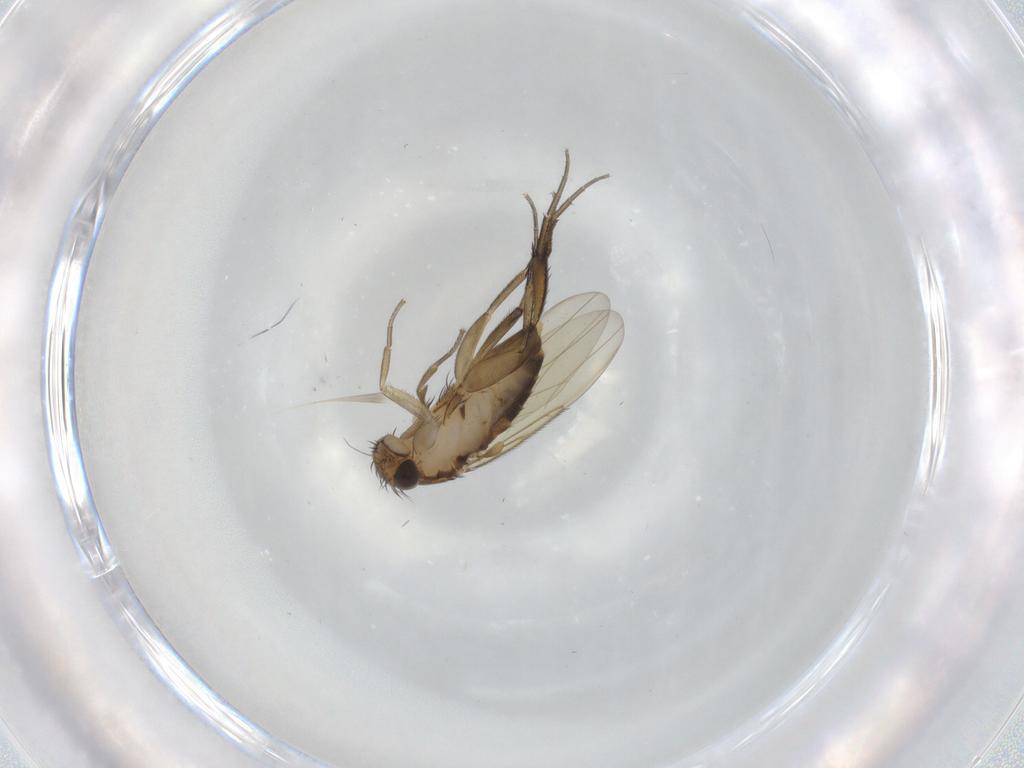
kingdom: Animalia
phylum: Arthropoda
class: Insecta
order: Diptera
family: Phoridae
